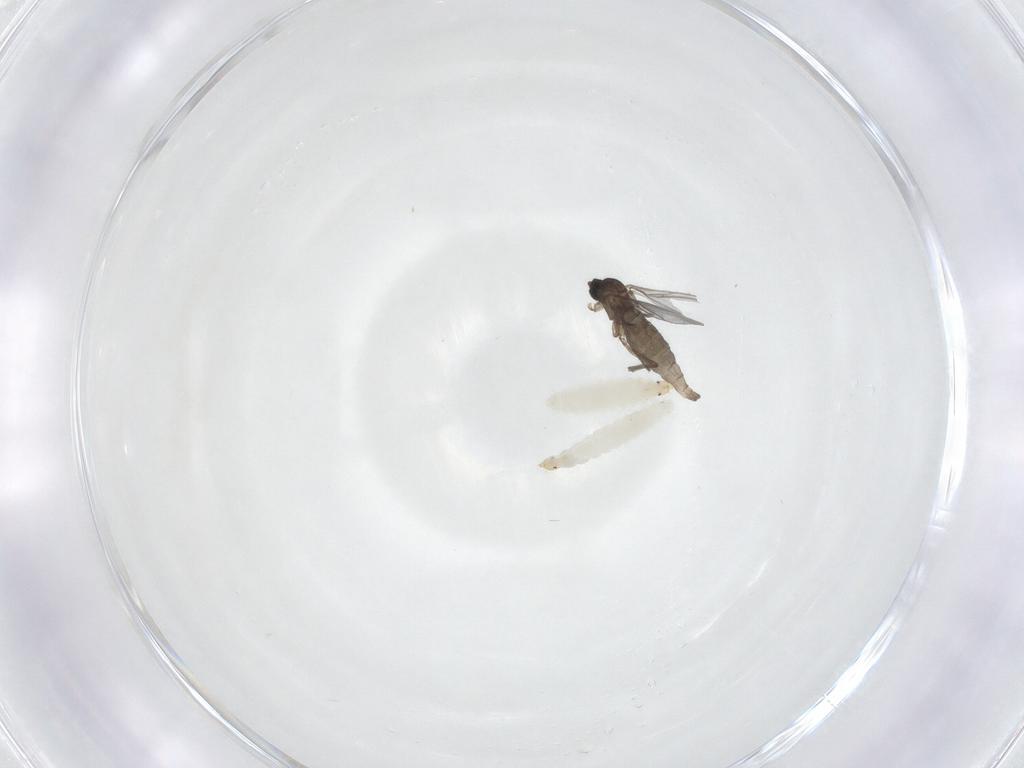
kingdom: Animalia
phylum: Arthropoda
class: Insecta
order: Diptera
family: Sciaridae
